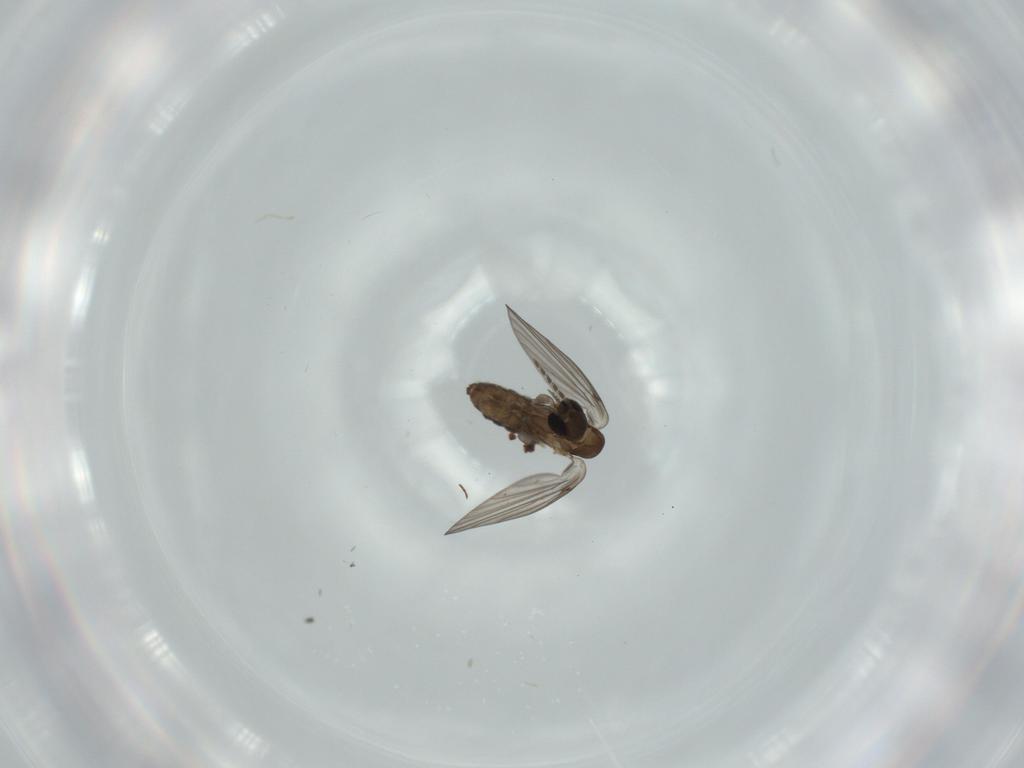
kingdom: Animalia
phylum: Arthropoda
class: Insecta
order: Diptera
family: Psychodidae
